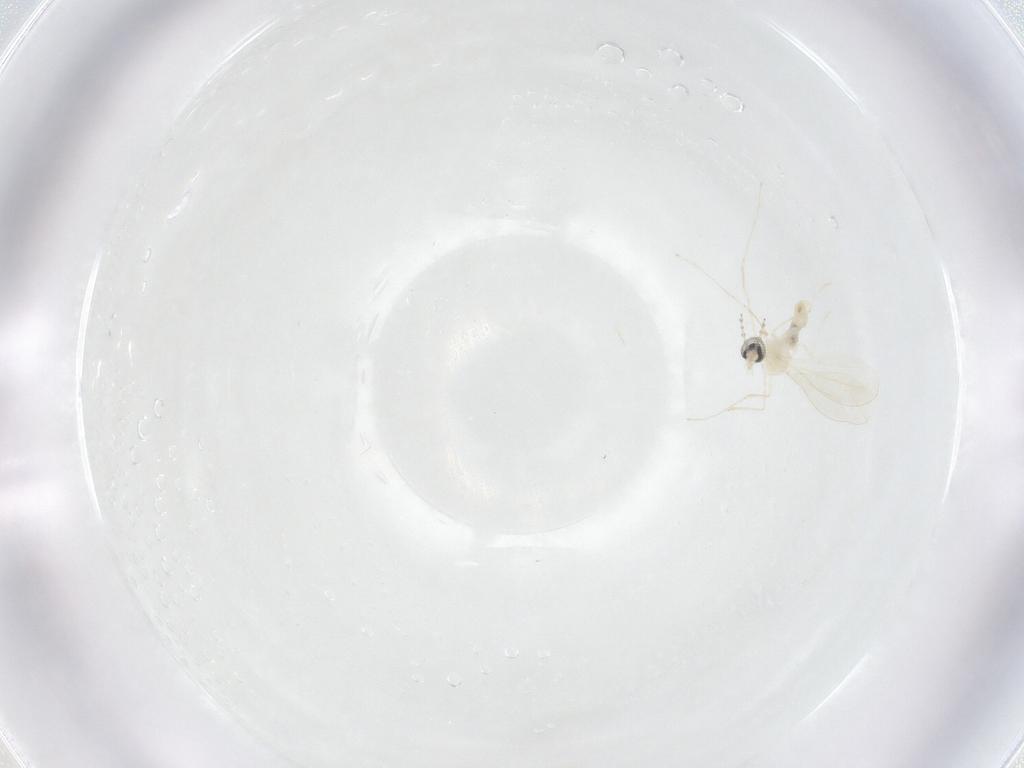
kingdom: Animalia
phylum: Arthropoda
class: Insecta
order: Diptera
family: Cecidomyiidae
